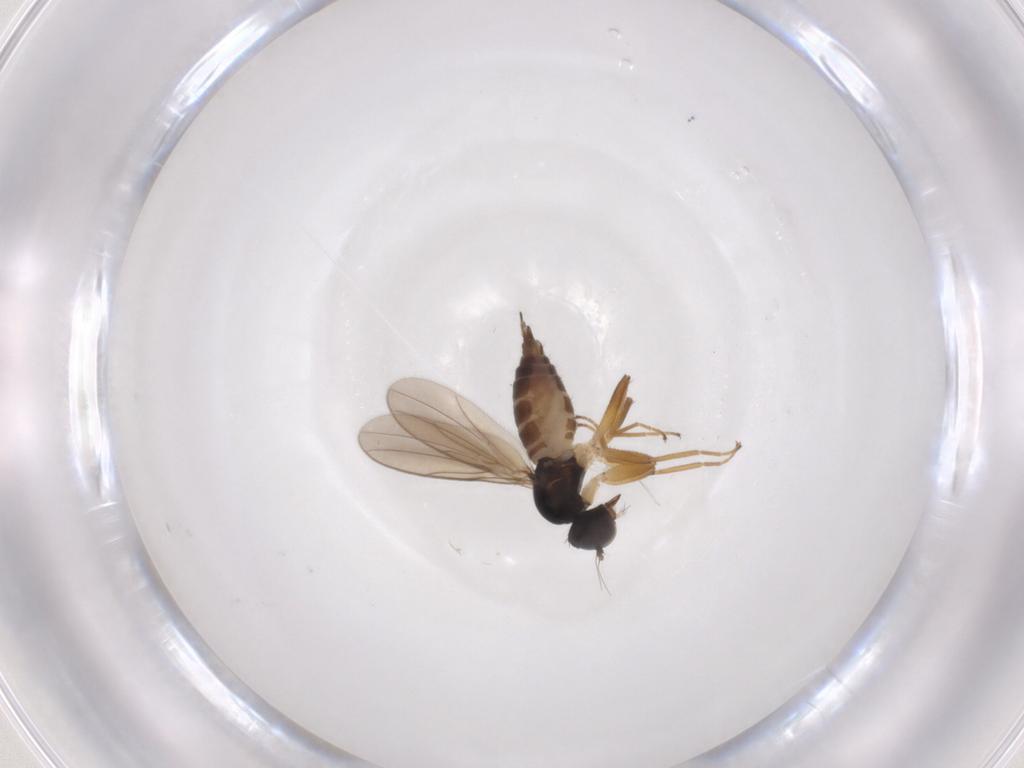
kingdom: Animalia
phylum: Arthropoda
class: Insecta
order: Diptera
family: Hybotidae
